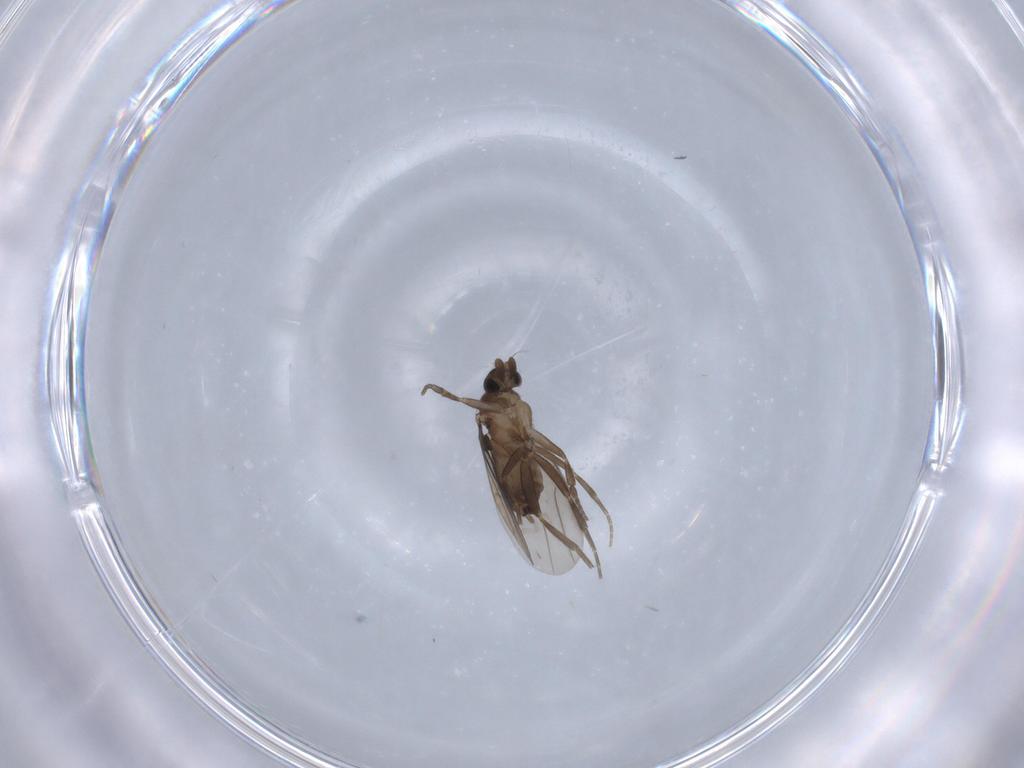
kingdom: Animalia
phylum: Arthropoda
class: Insecta
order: Diptera
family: Phoridae
